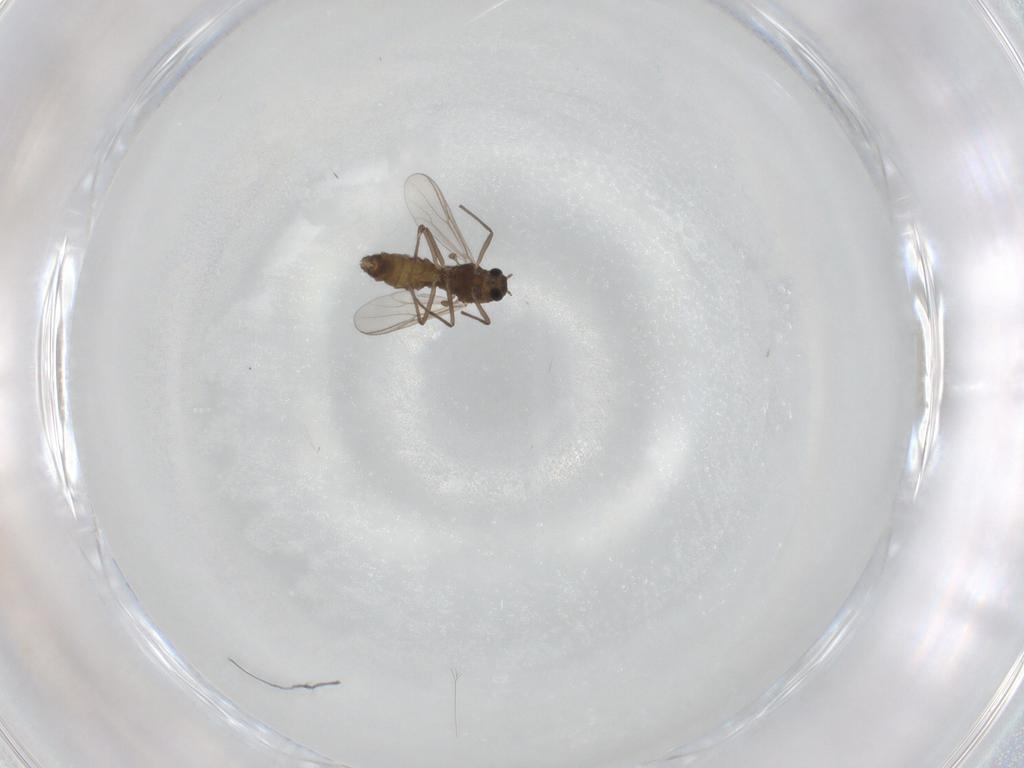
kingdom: Animalia
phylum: Arthropoda
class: Insecta
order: Diptera
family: Chironomidae
